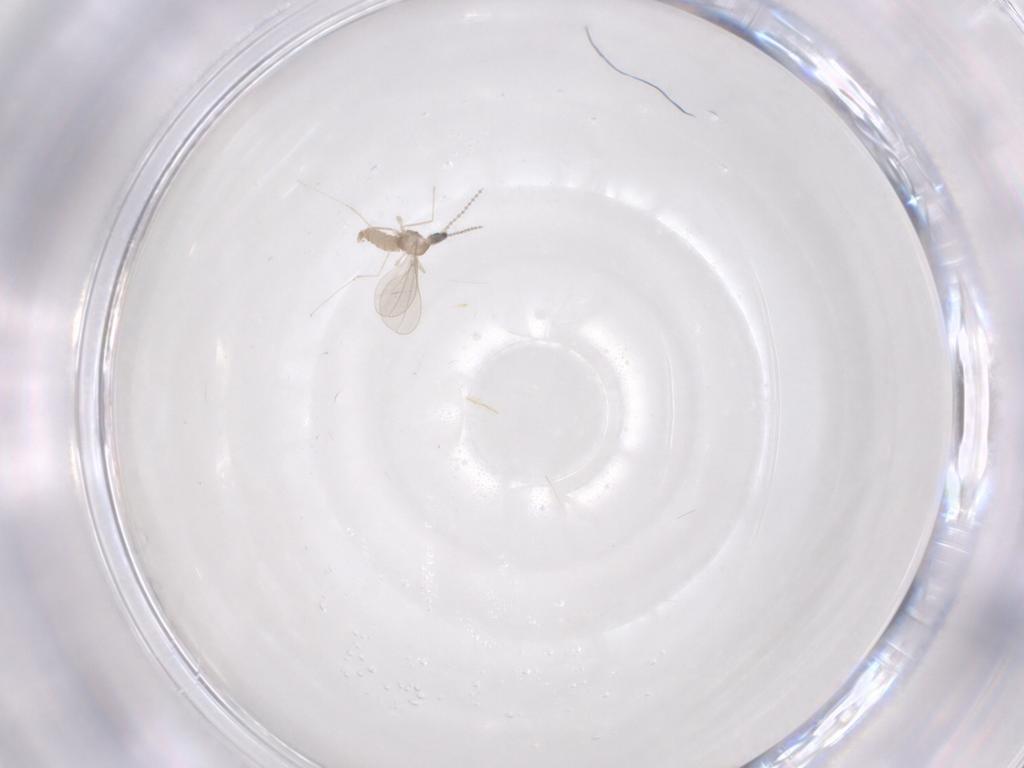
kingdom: Animalia
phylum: Arthropoda
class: Insecta
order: Diptera
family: Cecidomyiidae
